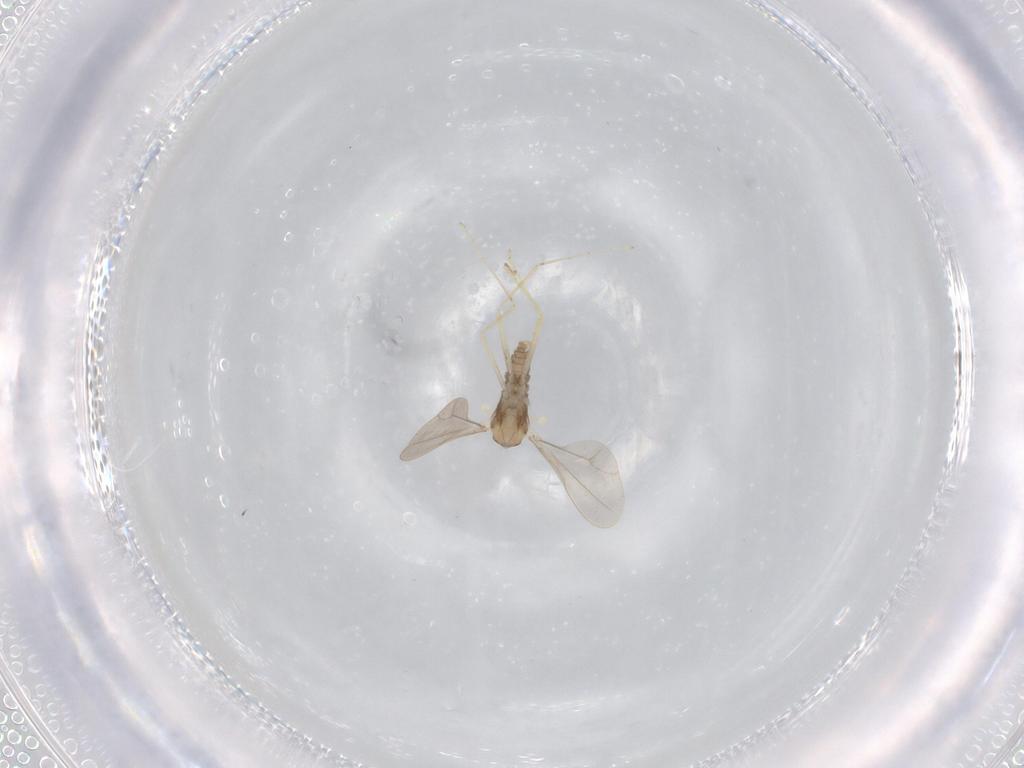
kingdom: Animalia
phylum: Arthropoda
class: Insecta
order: Diptera
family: Cecidomyiidae
